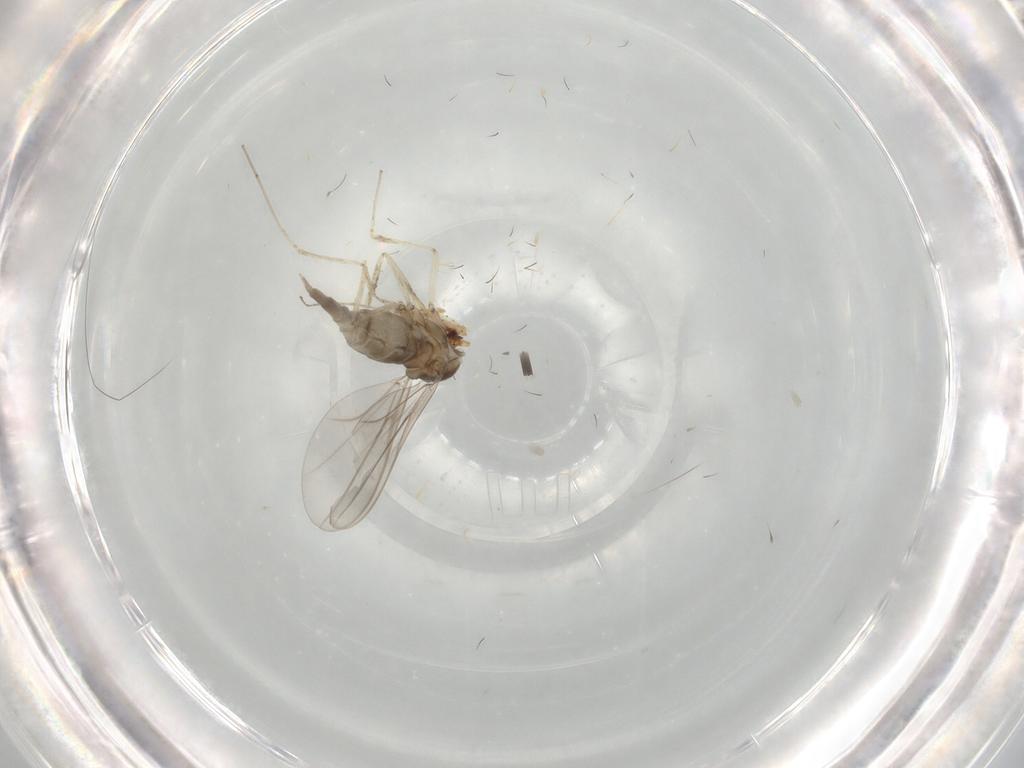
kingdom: Animalia
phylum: Arthropoda
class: Insecta
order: Diptera
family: Cecidomyiidae
